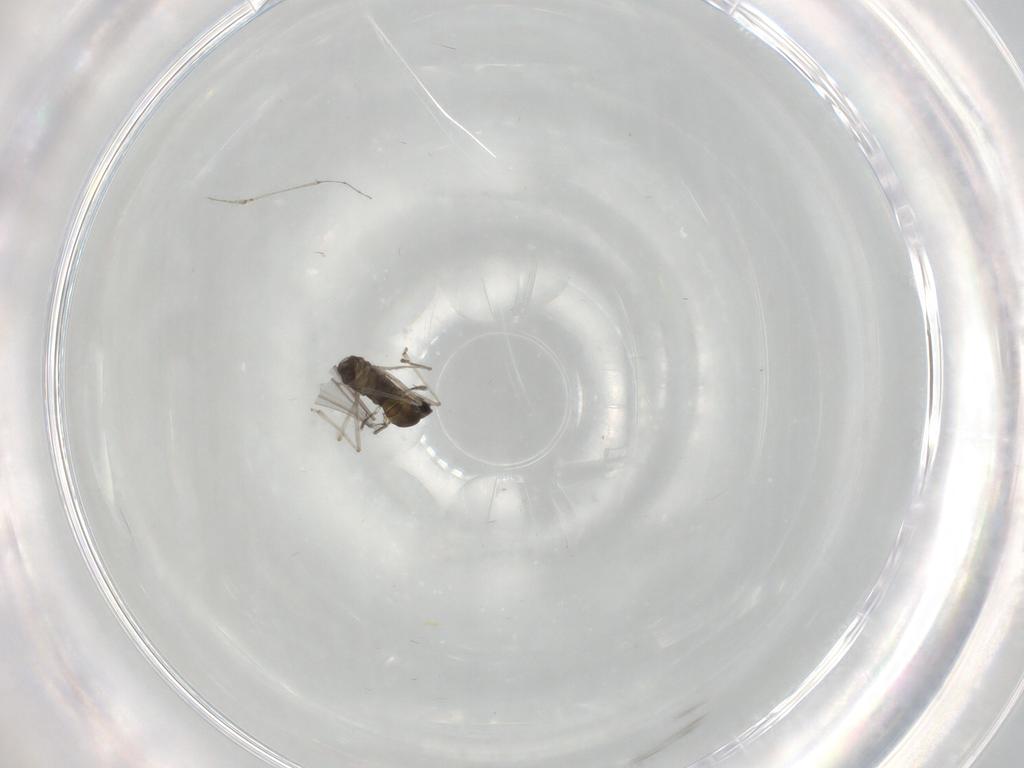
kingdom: Animalia
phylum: Arthropoda
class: Insecta
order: Diptera
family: Cecidomyiidae
